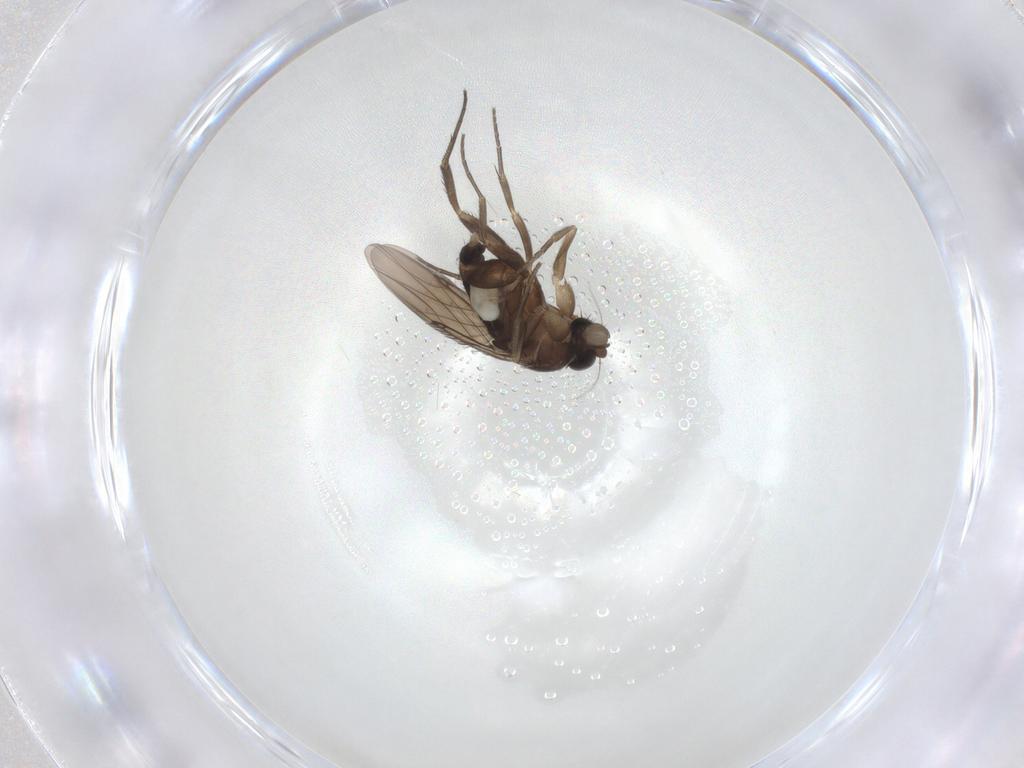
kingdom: Animalia
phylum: Arthropoda
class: Insecta
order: Diptera
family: Phoridae
